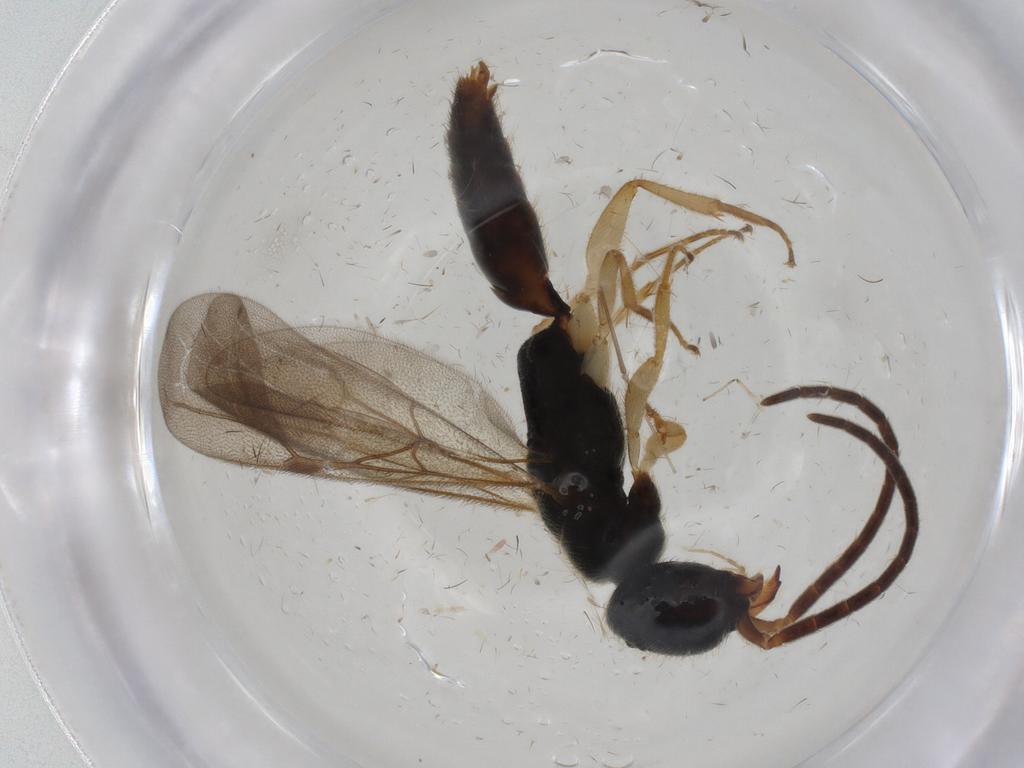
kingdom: Animalia
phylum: Arthropoda
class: Insecta
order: Hymenoptera
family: Bethylidae
